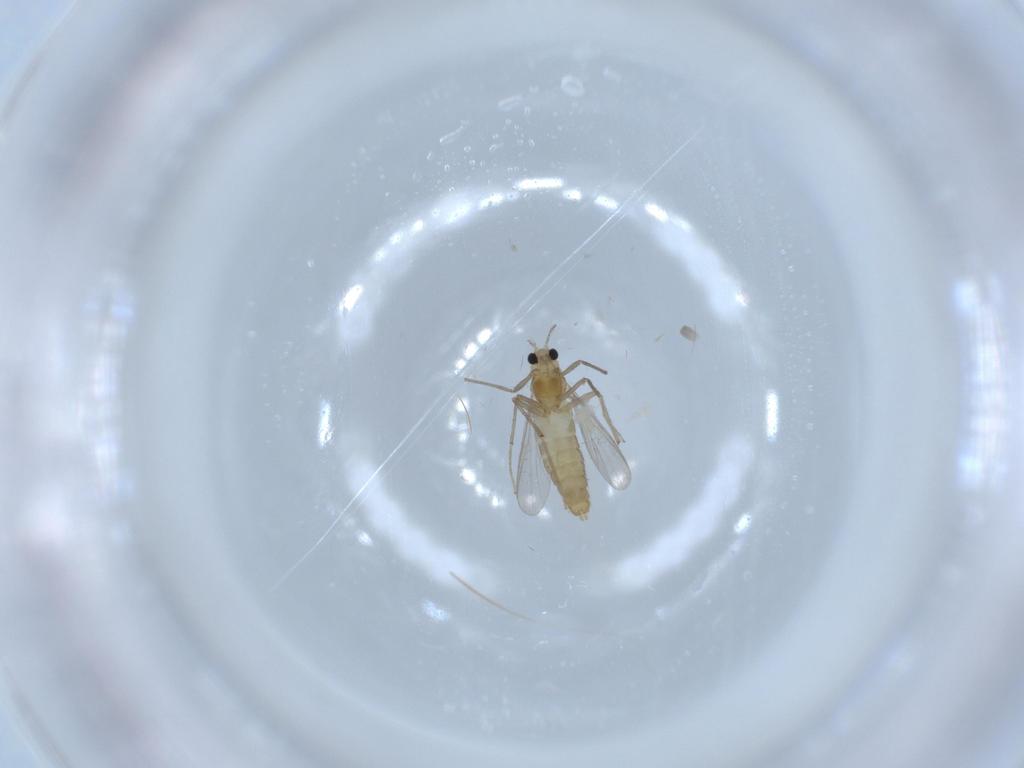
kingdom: Animalia
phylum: Arthropoda
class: Insecta
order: Diptera
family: Chironomidae
